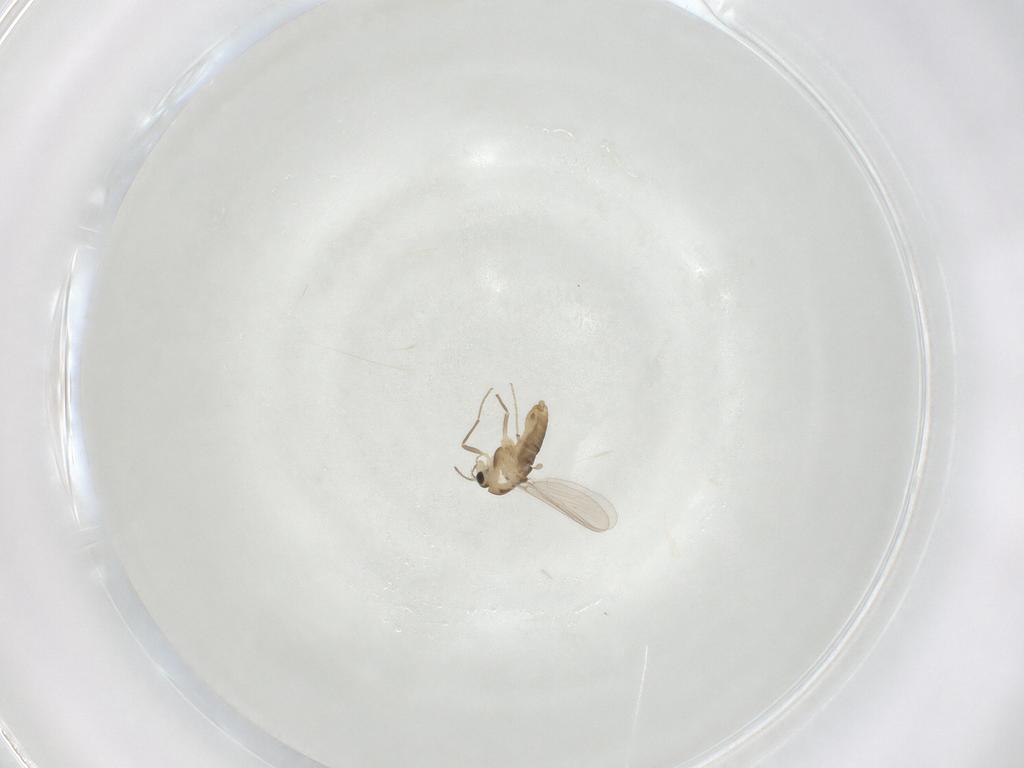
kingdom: Animalia
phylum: Arthropoda
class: Insecta
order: Diptera
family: Chironomidae
